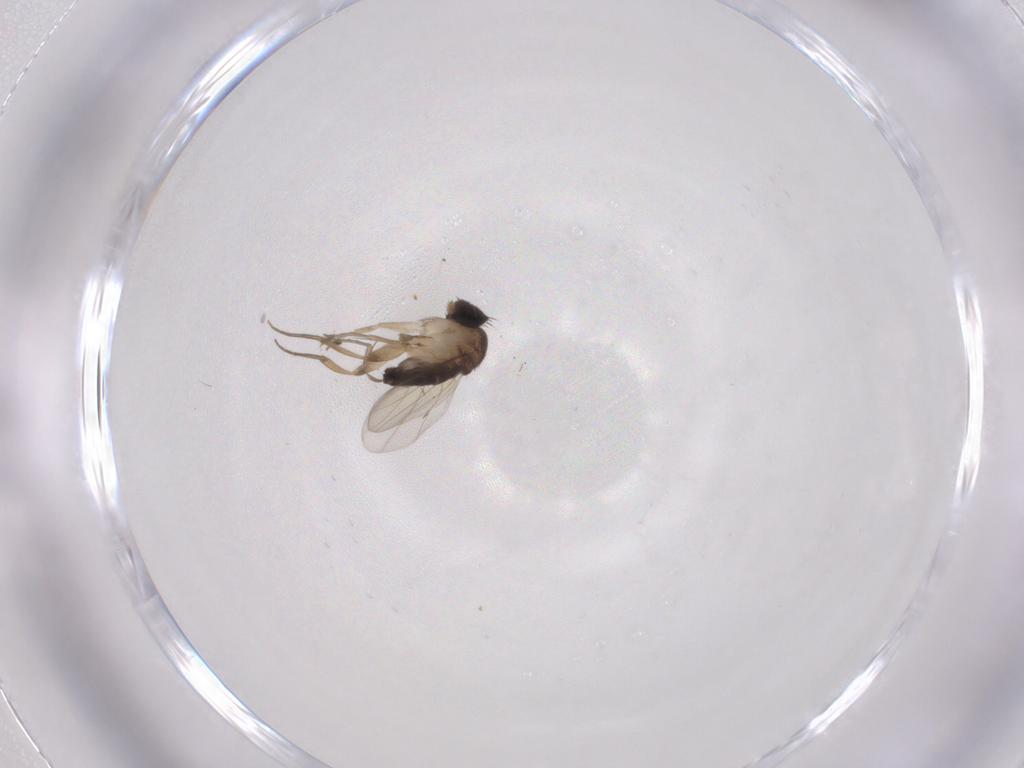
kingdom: Animalia
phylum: Arthropoda
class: Insecta
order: Diptera
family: Phoridae
